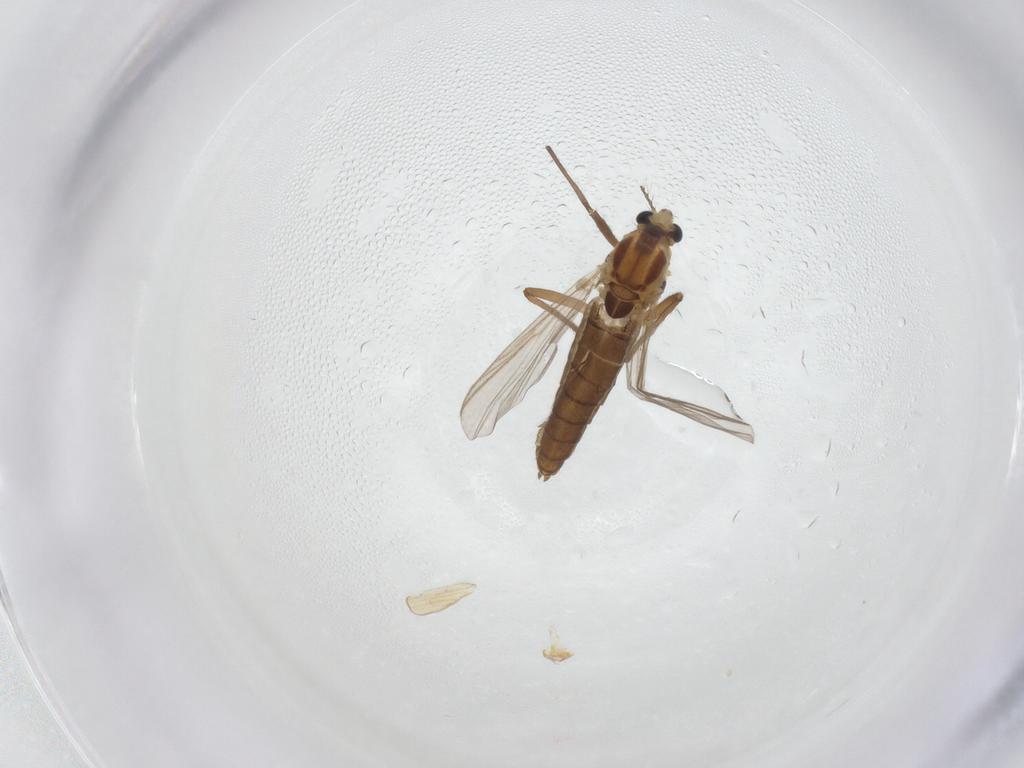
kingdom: Animalia
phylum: Arthropoda
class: Insecta
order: Diptera
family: Chironomidae
